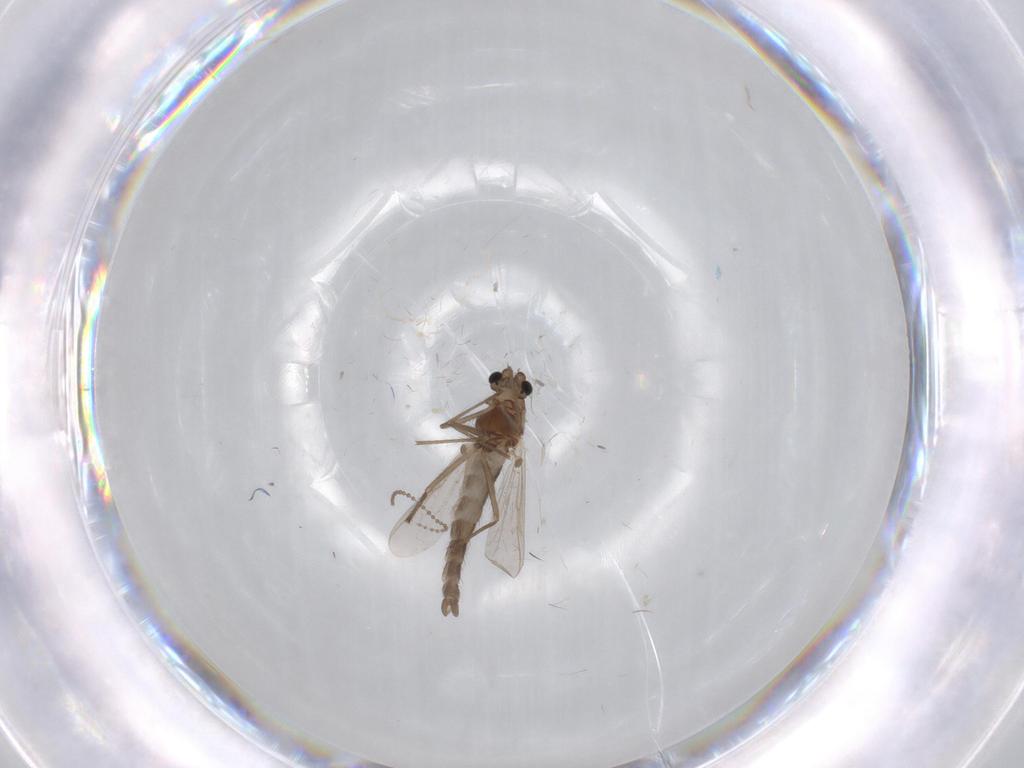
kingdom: Animalia
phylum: Arthropoda
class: Insecta
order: Diptera
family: Chironomidae
